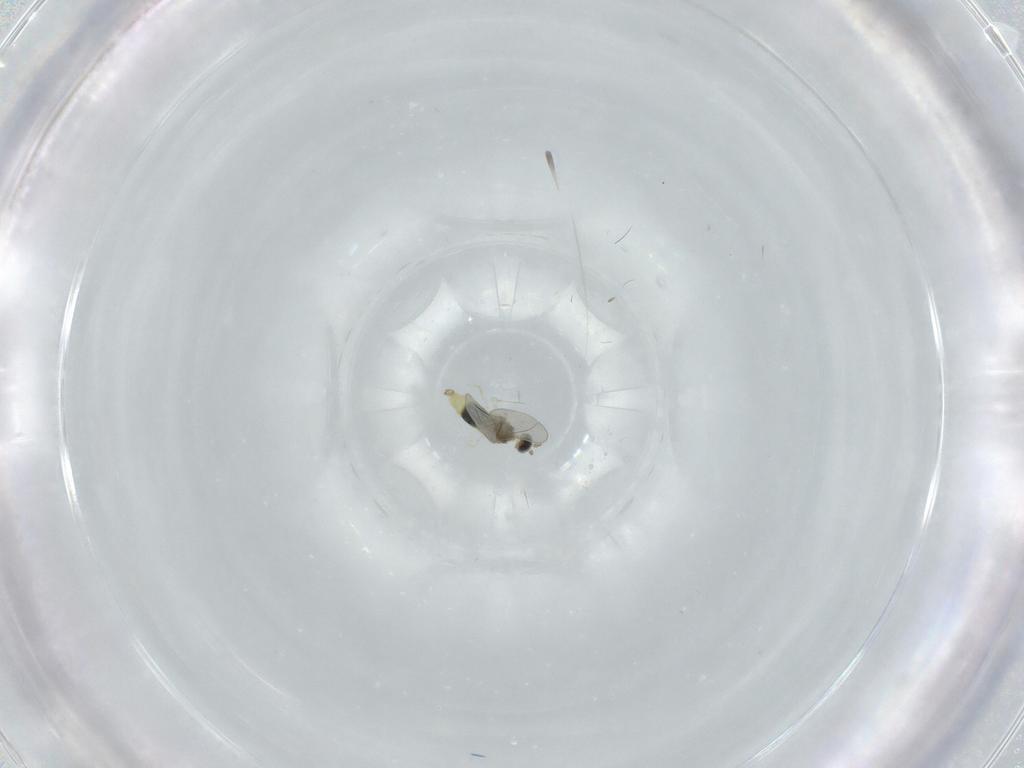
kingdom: Animalia
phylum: Arthropoda
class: Insecta
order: Diptera
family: Cecidomyiidae
